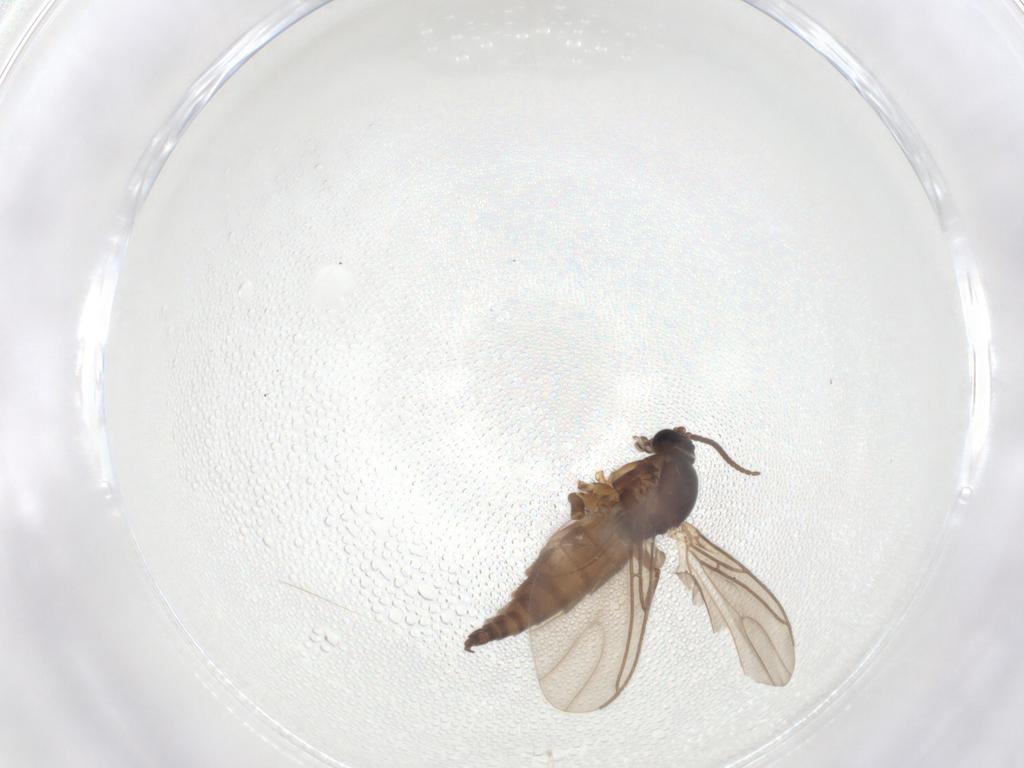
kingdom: Animalia
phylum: Arthropoda
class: Insecta
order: Diptera
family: Sciaridae
